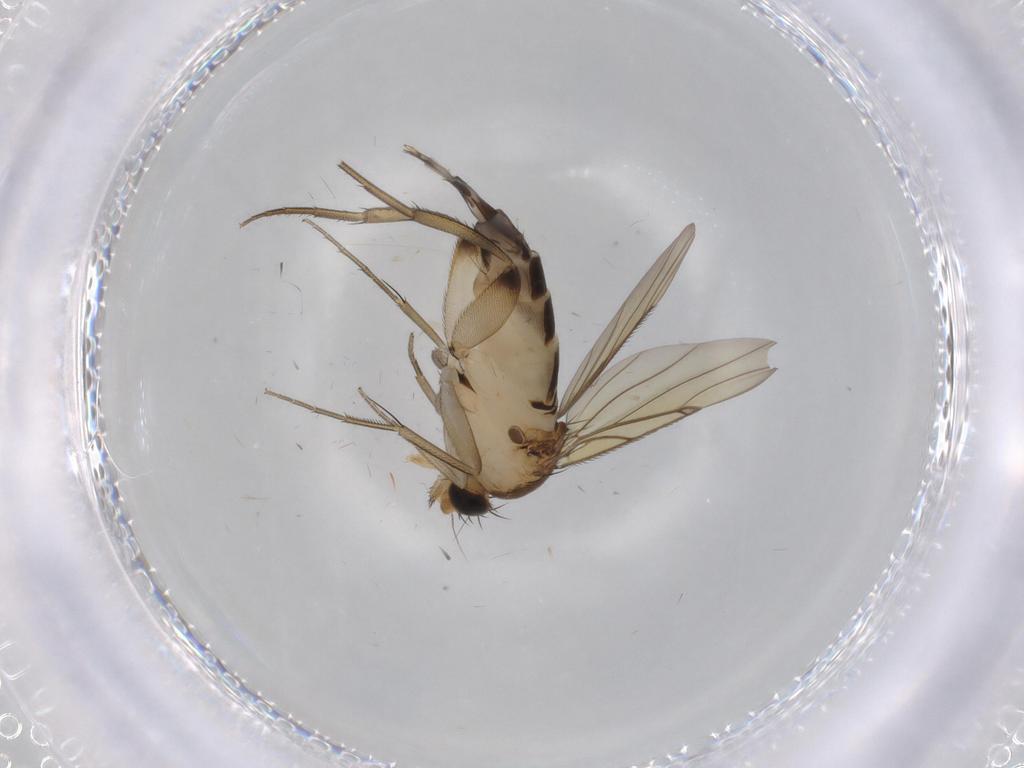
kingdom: Animalia
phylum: Arthropoda
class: Insecta
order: Diptera
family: Phoridae
